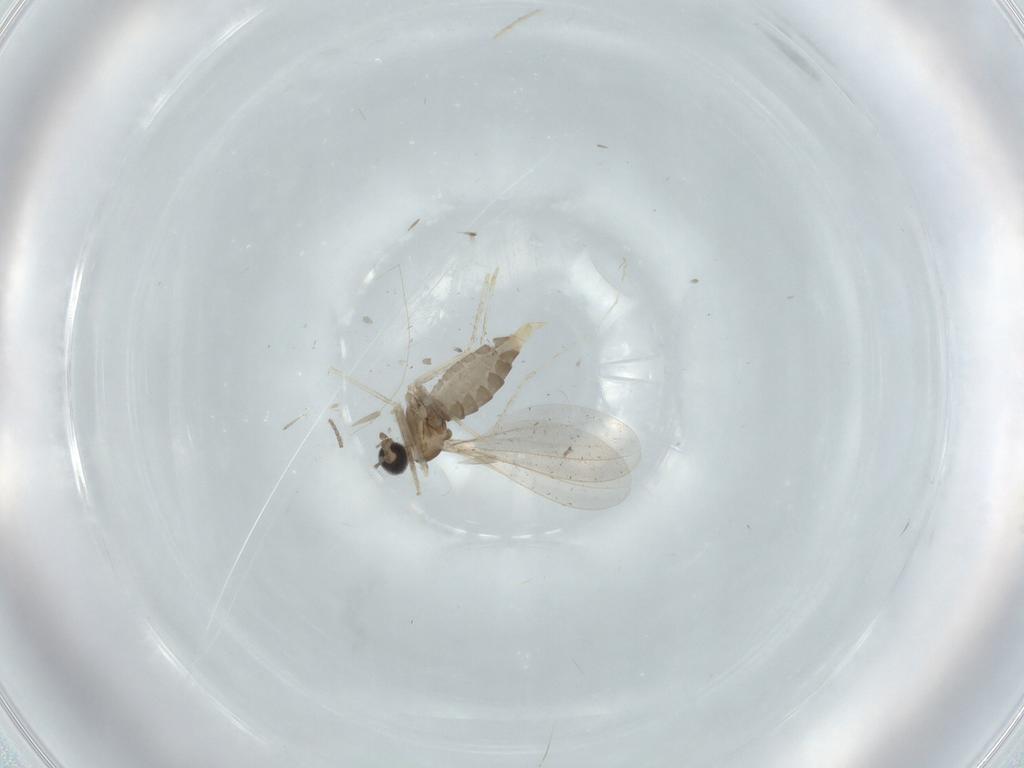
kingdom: Animalia
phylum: Arthropoda
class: Insecta
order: Diptera
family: Cecidomyiidae
